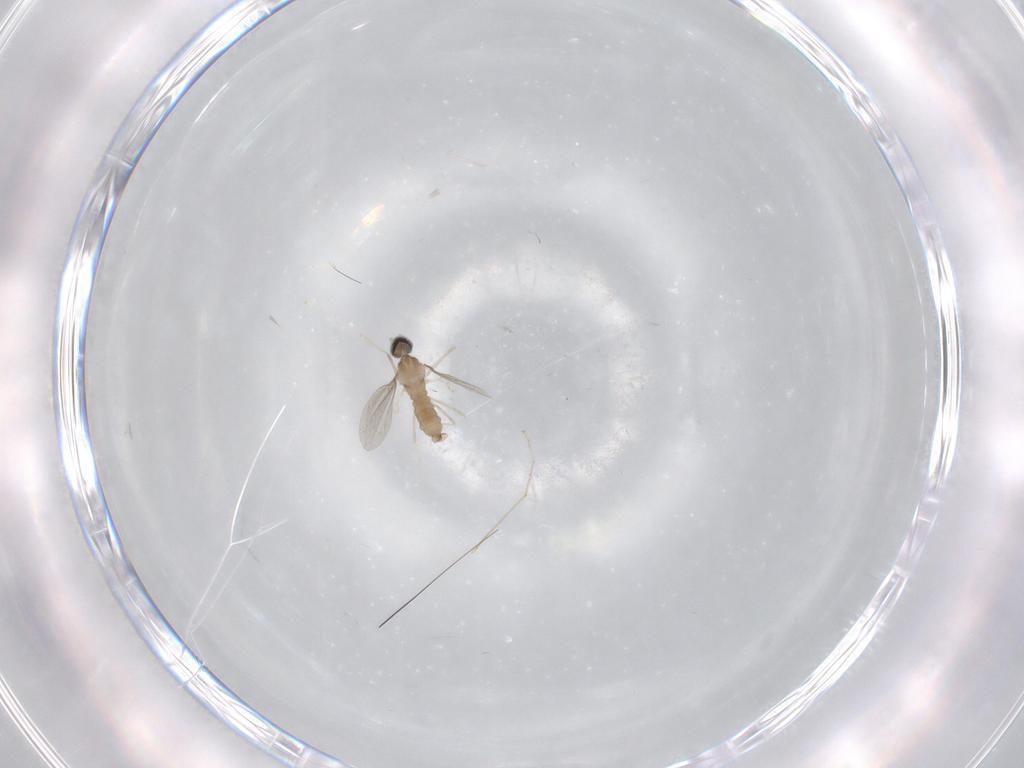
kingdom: Animalia
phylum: Arthropoda
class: Insecta
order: Diptera
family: Cecidomyiidae
